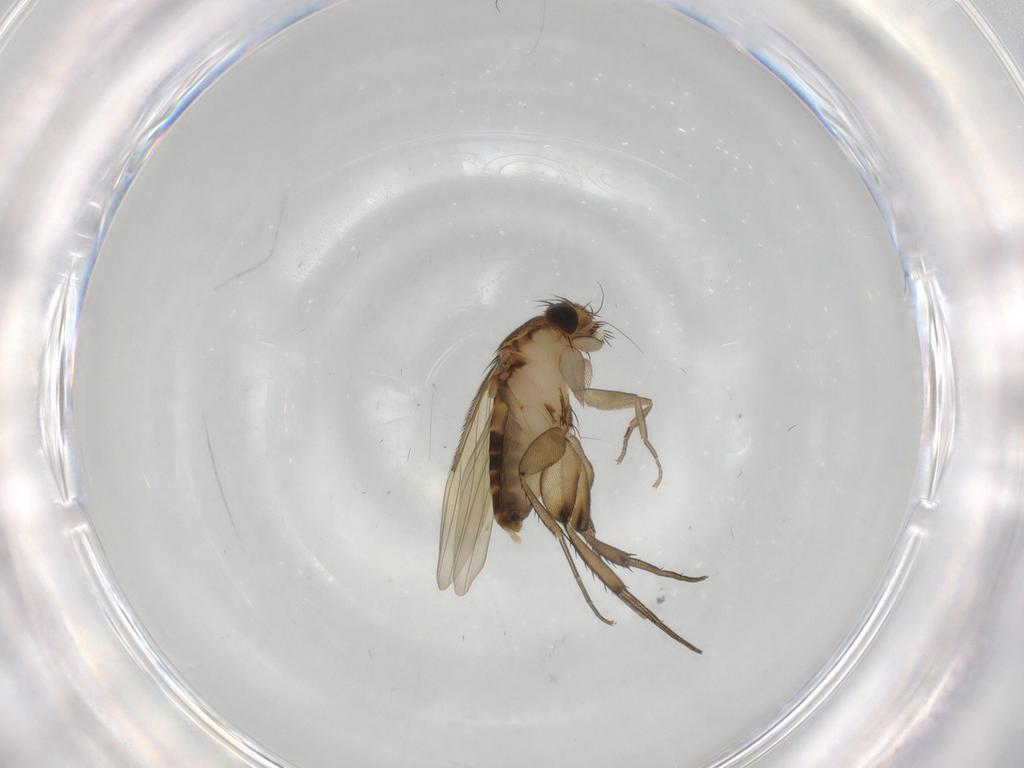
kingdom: Animalia
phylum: Arthropoda
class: Insecta
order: Diptera
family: Phoridae
